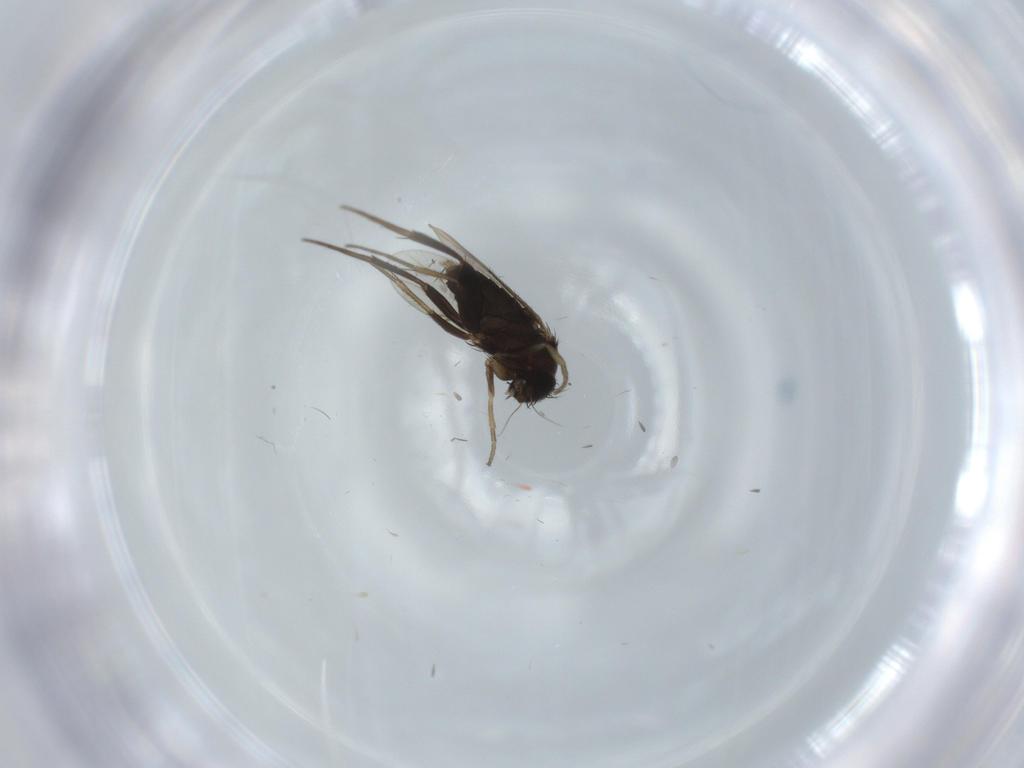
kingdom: Animalia
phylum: Arthropoda
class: Insecta
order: Diptera
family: Phoridae
